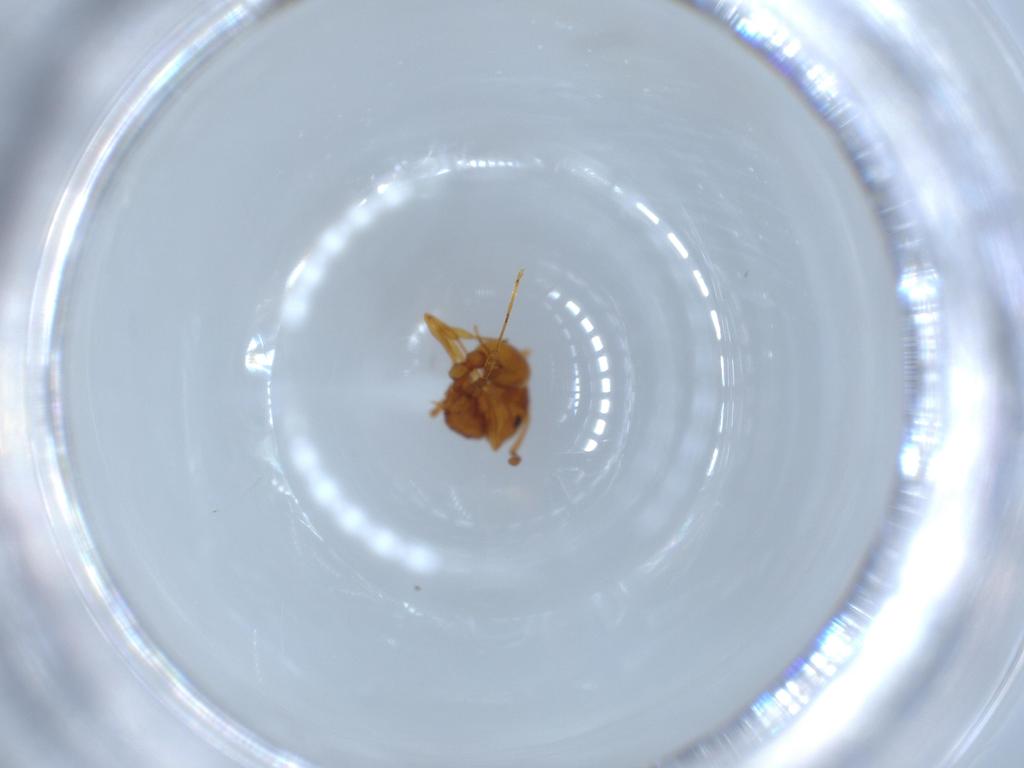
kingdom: Animalia
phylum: Arthropoda
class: Insecta
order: Hymenoptera
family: Formicidae
